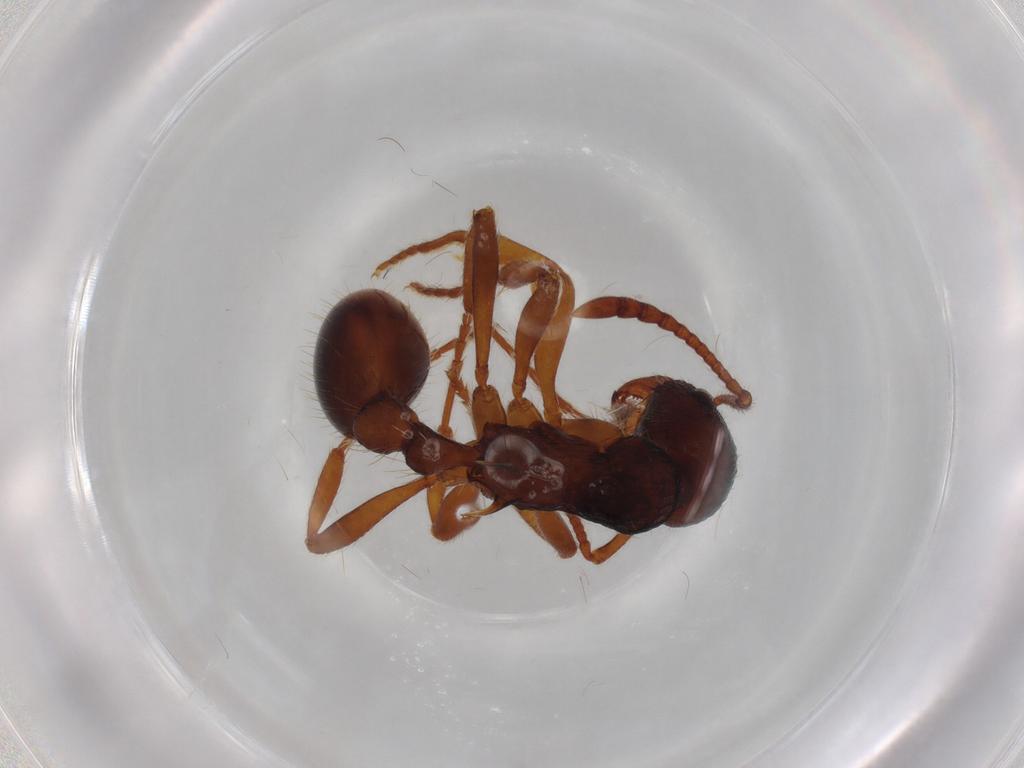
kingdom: Animalia
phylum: Arthropoda
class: Insecta
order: Hymenoptera
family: Formicidae
